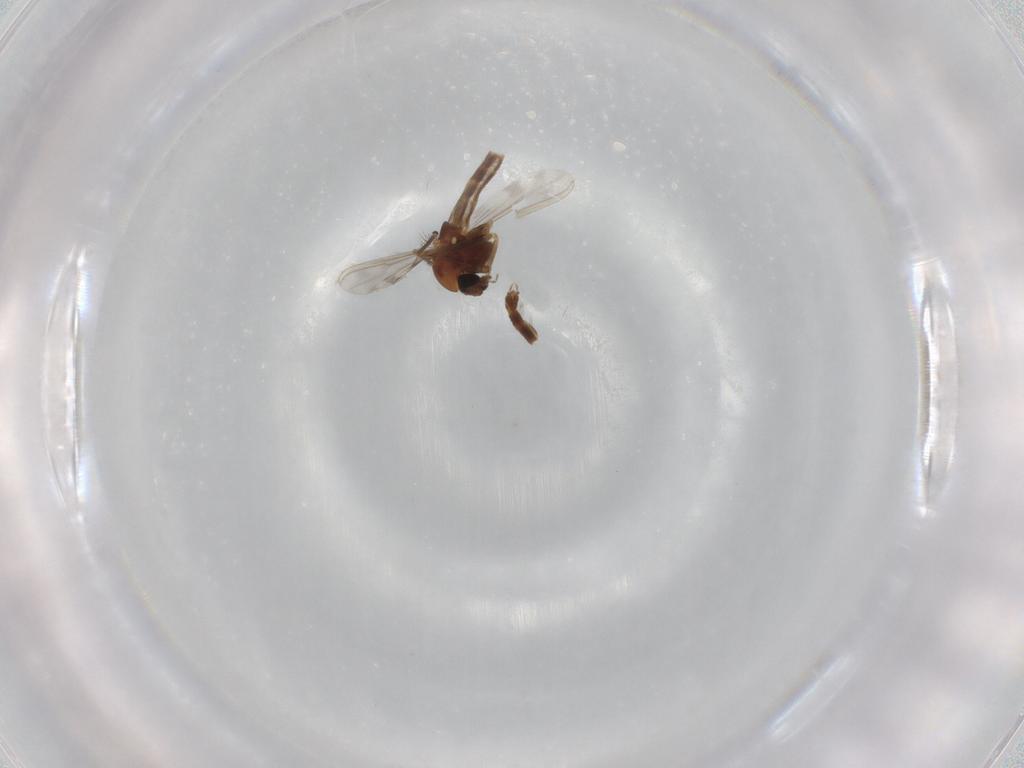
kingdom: Animalia
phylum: Arthropoda
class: Insecta
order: Diptera
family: Chironomidae
